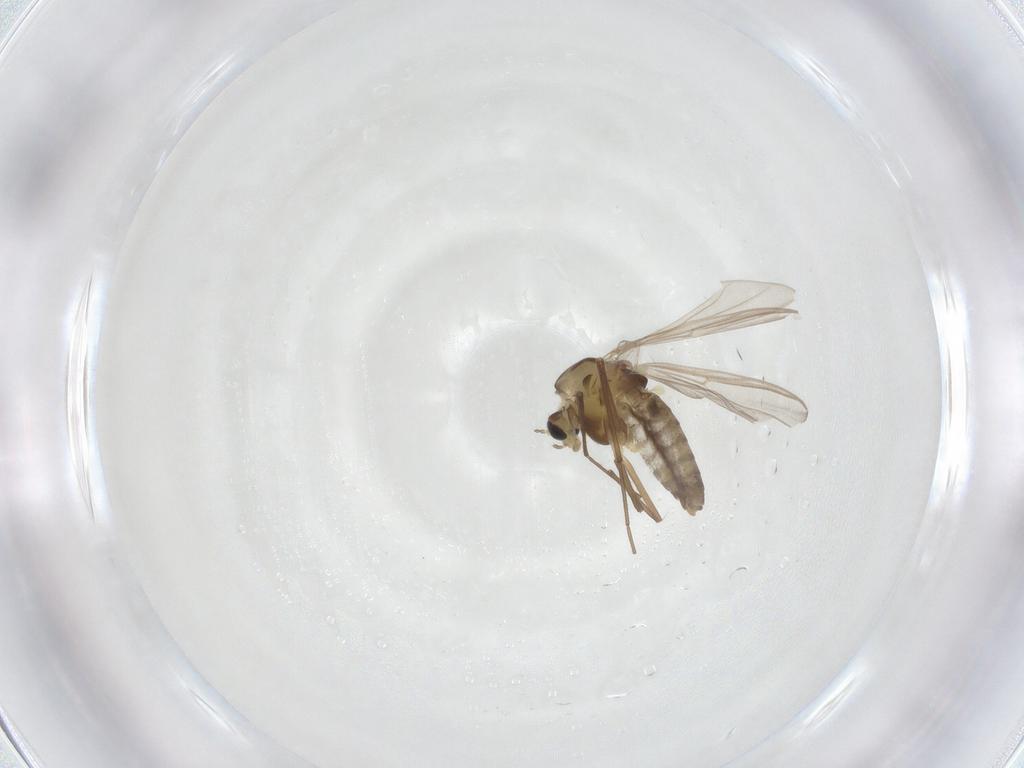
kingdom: Animalia
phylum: Arthropoda
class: Insecta
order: Diptera
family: Chironomidae
